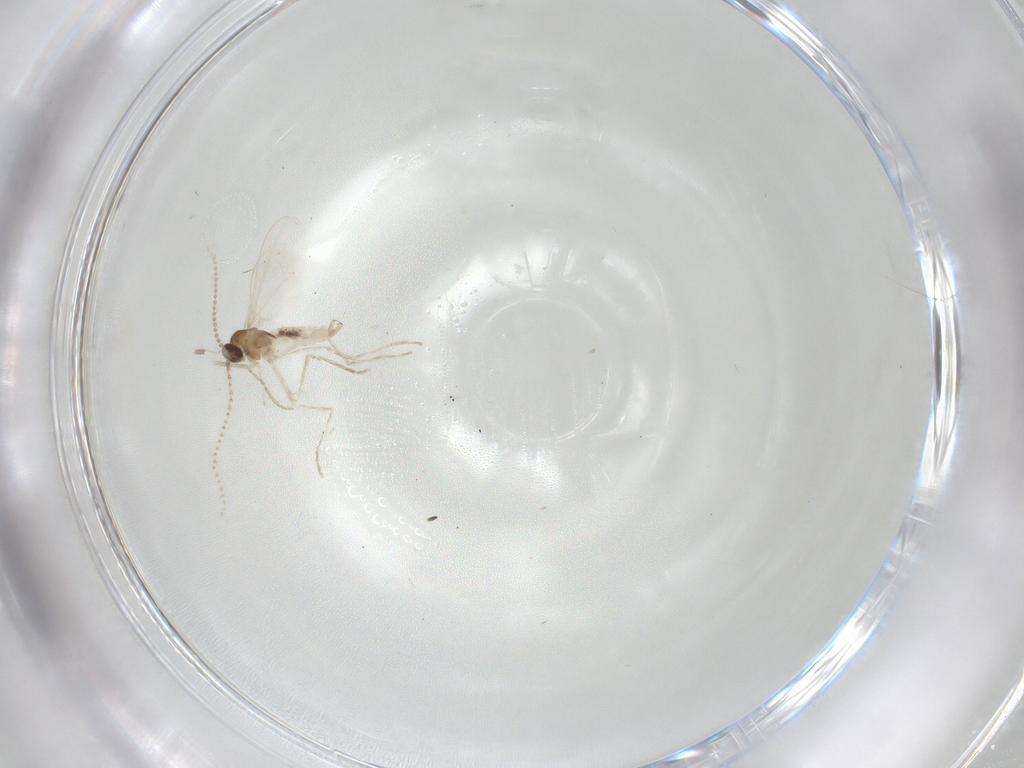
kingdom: Animalia
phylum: Arthropoda
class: Insecta
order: Diptera
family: Cecidomyiidae
